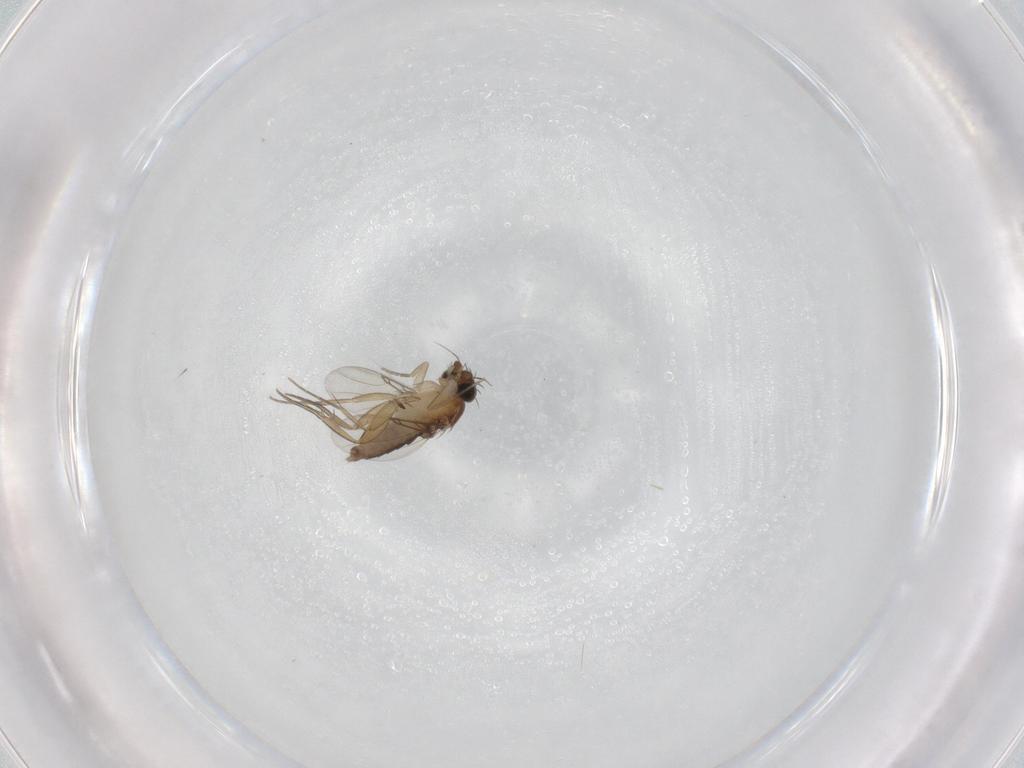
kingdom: Animalia
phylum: Arthropoda
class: Insecta
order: Diptera
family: Phoridae
